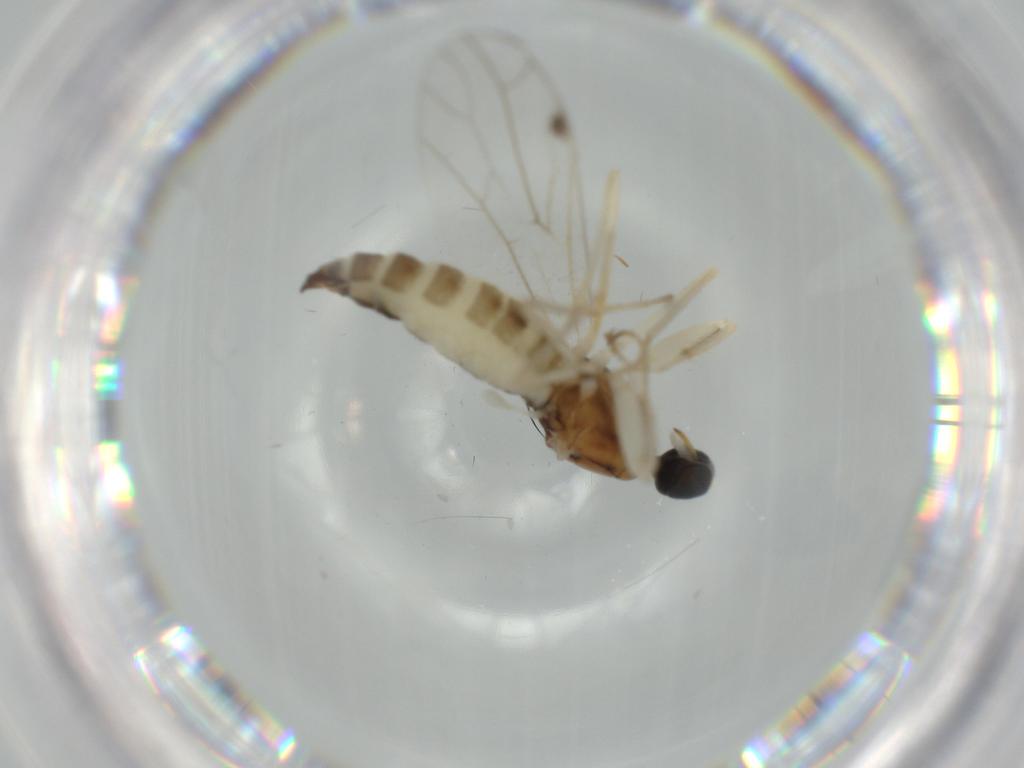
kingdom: Animalia
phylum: Arthropoda
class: Insecta
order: Diptera
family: Empididae
